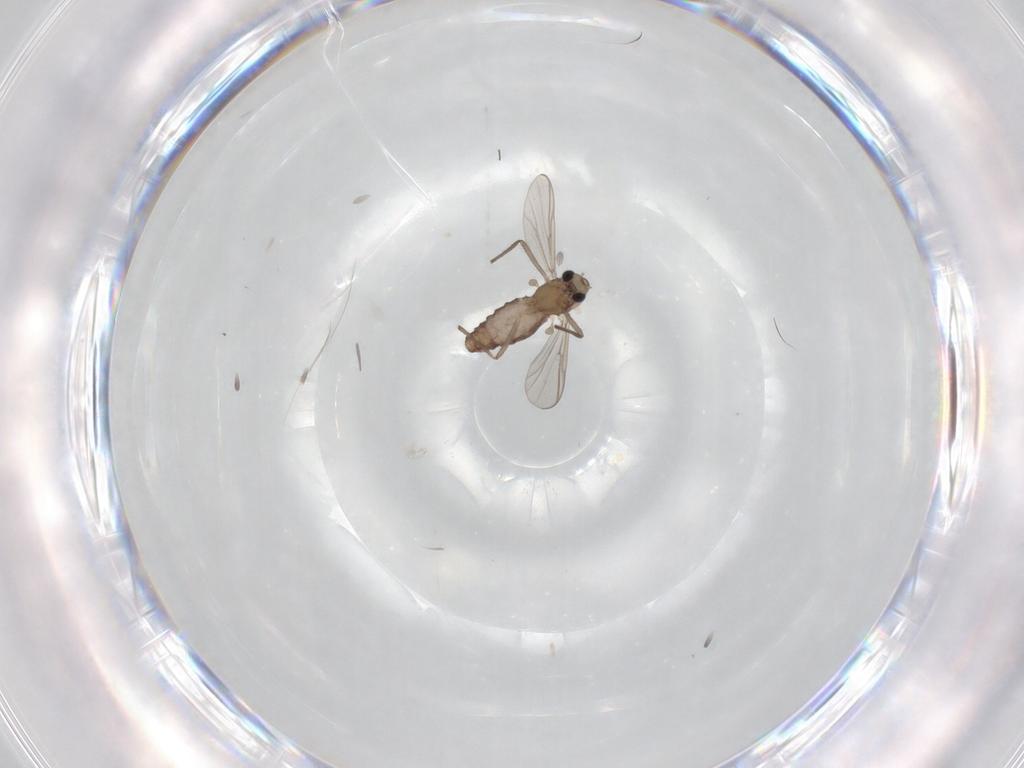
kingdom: Animalia
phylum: Arthropoda
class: Insecta
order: Diptera
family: Chironomidae
